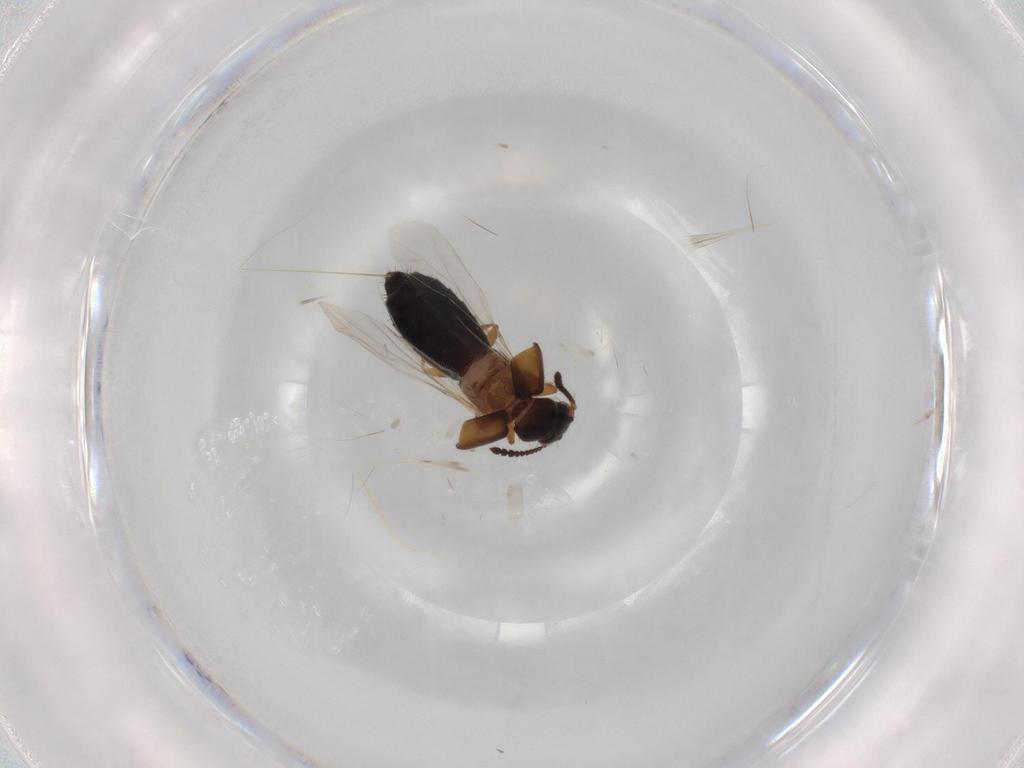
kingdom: Animalia
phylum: Arthropoda
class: Insecta
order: Coleoptera
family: Staphylinidae
